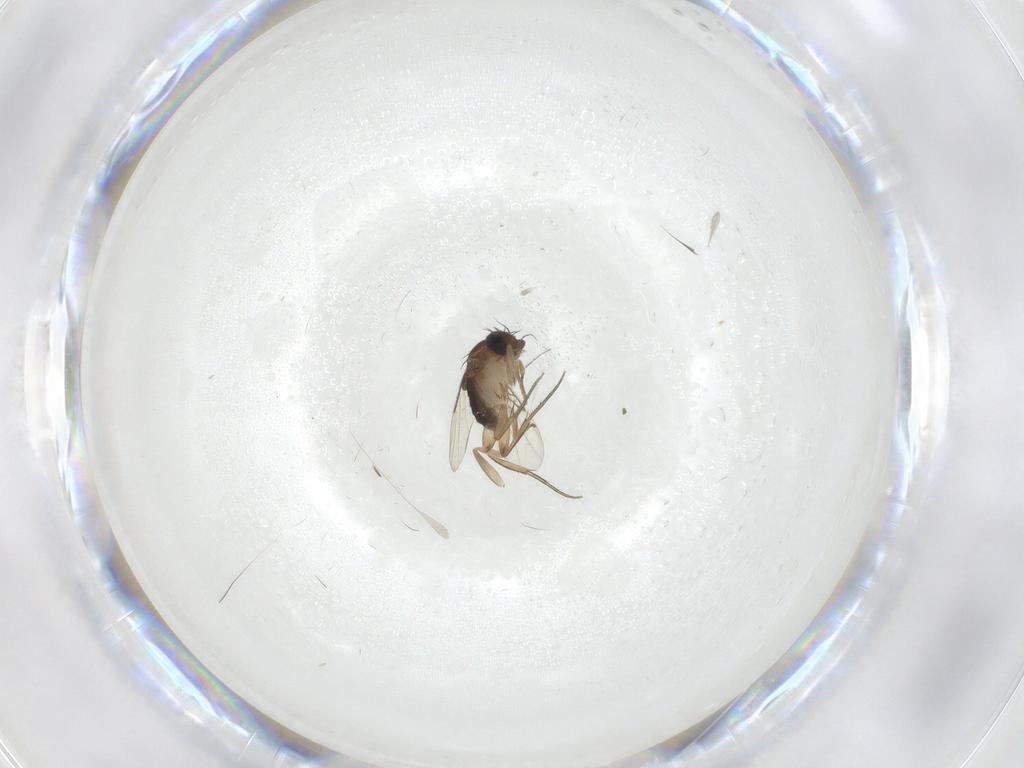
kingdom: Animalia
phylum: Arthropoda
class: Insecta
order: Diptera
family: Phoridae
